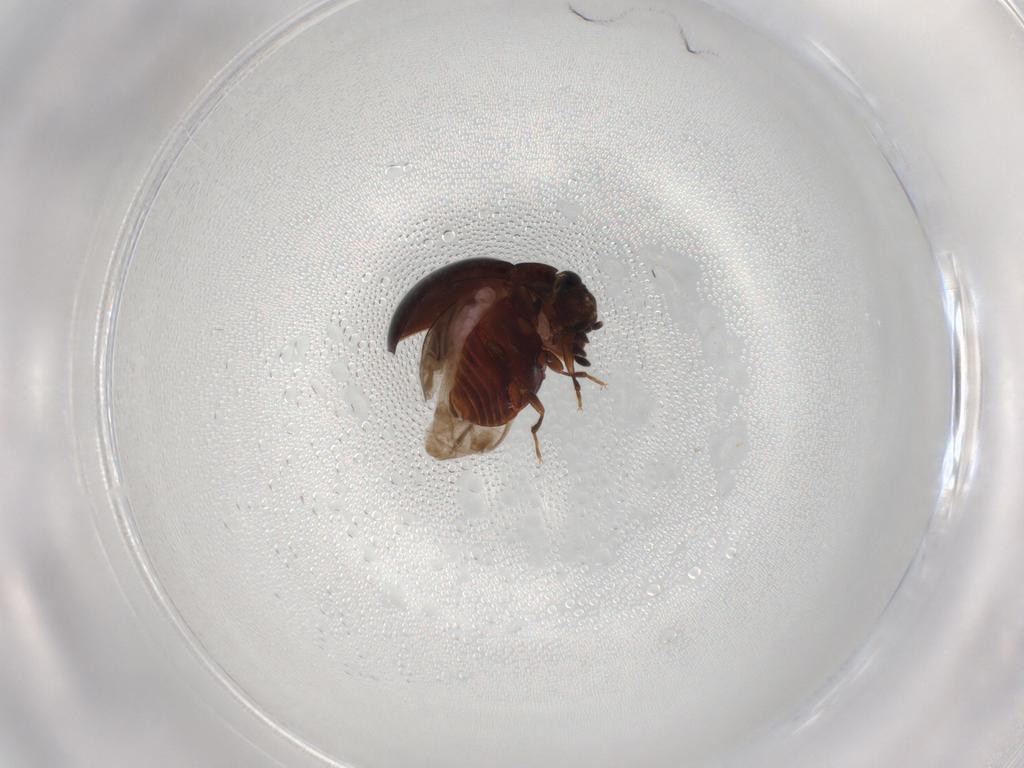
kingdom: Animalia
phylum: Arthropoda
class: Insecta
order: Coleoptera
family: Anamorphidae
